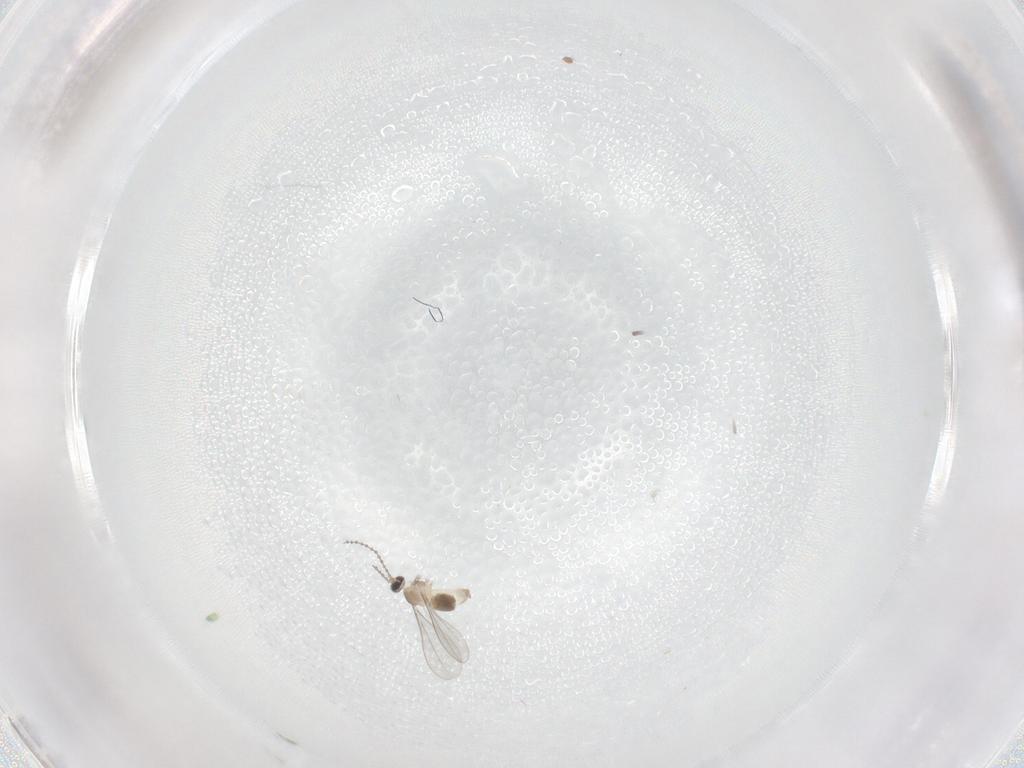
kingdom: Animalia
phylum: Arthropoda
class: Insecta
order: Diptera
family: Cecidomyiidae
